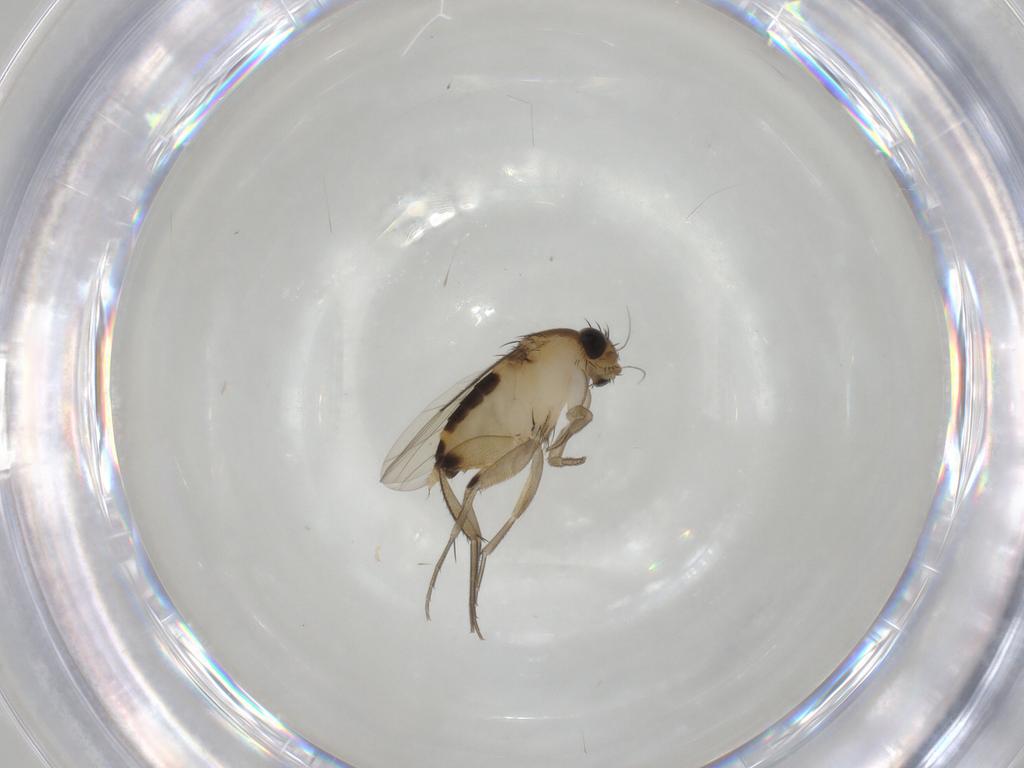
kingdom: Animalia
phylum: Arthropoda
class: Insecta
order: Diptera
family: Phoridae
